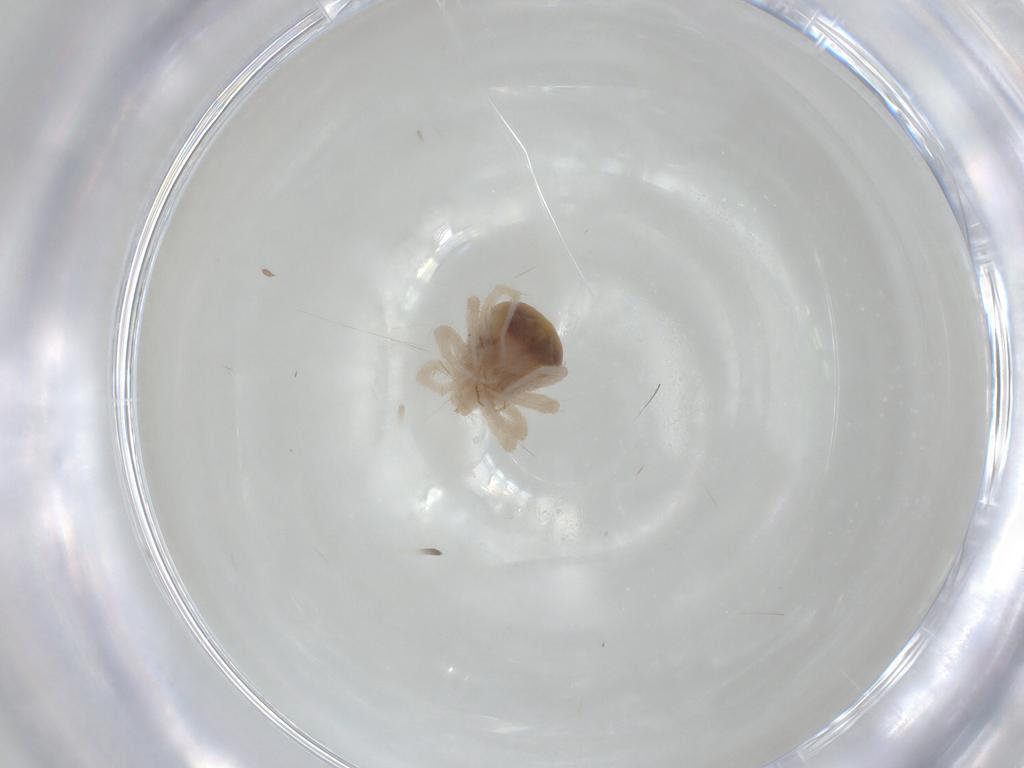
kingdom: Animalia
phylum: Arthropoda
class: Arachnida
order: Trombidiformes
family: Anystidae
